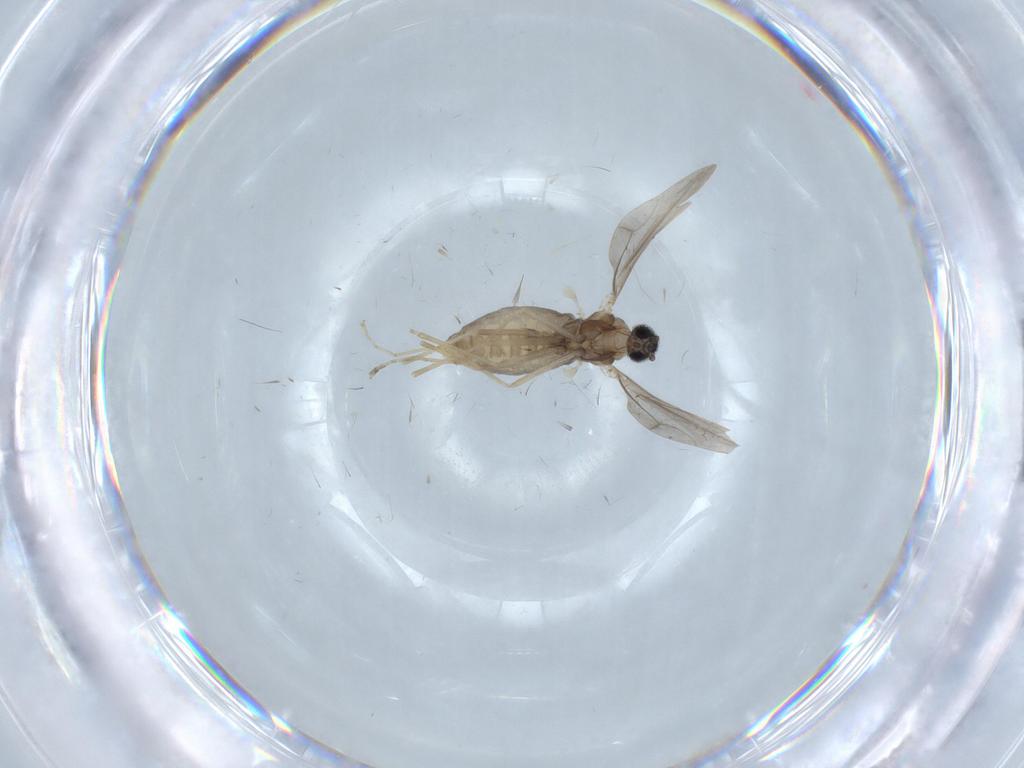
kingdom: Animalia
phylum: Arthropoda
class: Insecta
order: Diptera
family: Cecidomyiidae
